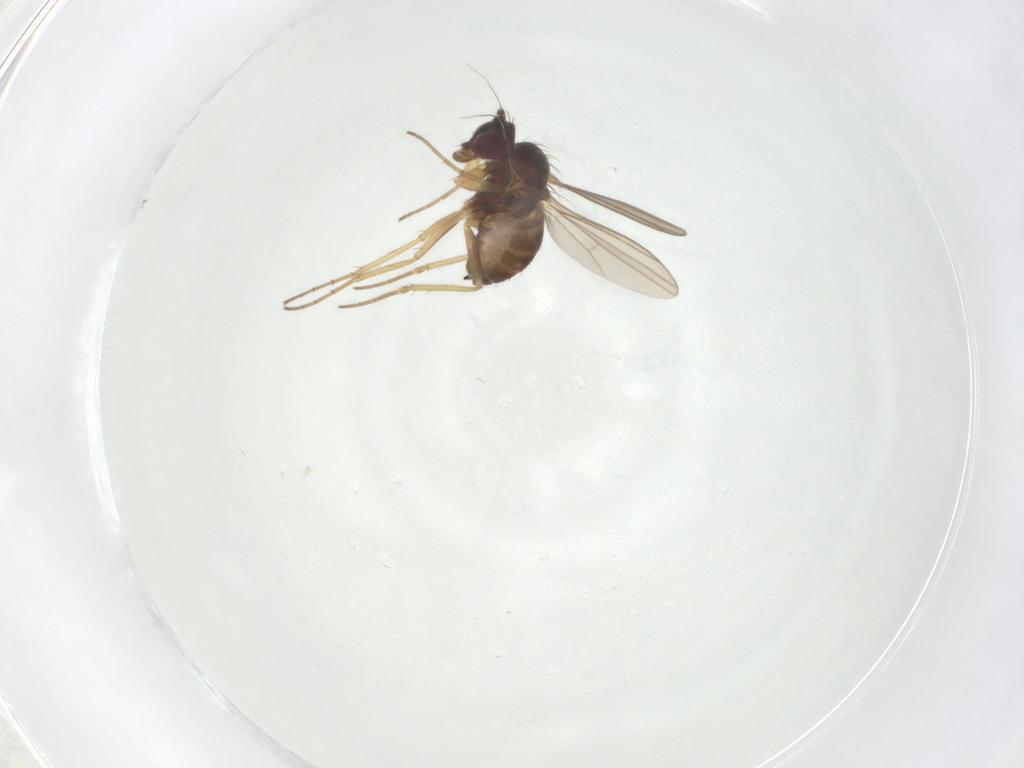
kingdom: Animalia
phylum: Arthropoda
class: Insecta
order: Diptera
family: Dolichopodidae
